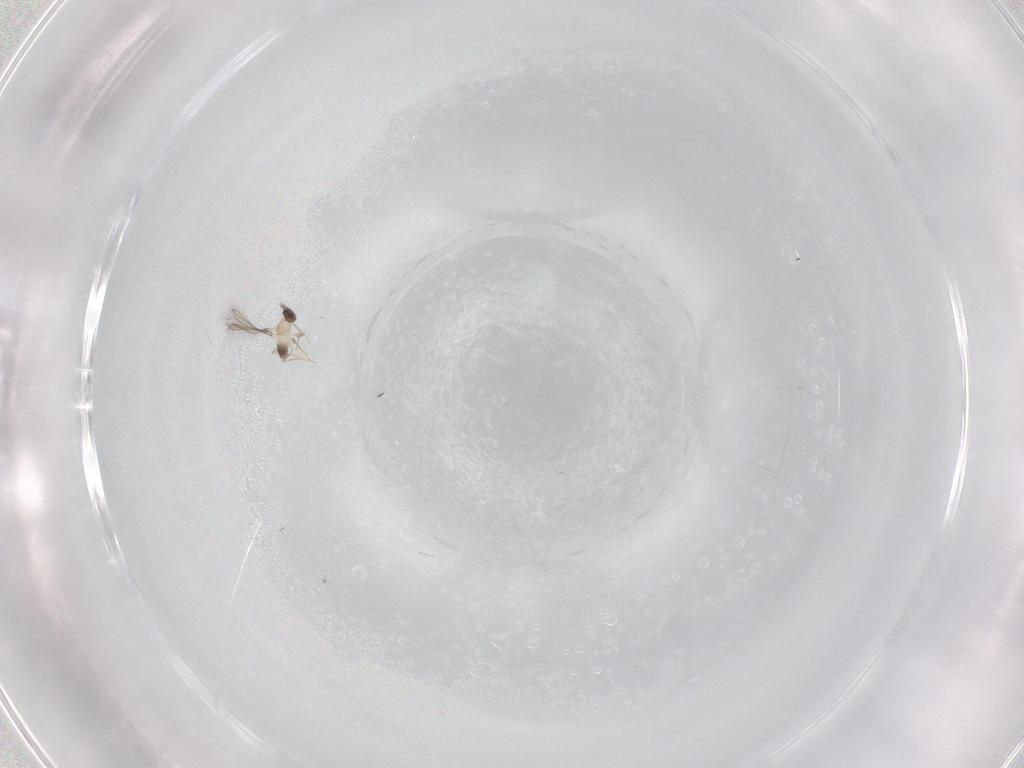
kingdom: Animalia
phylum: Arthropoda
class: Insecta
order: Hymenoptera
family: Mymaridae
